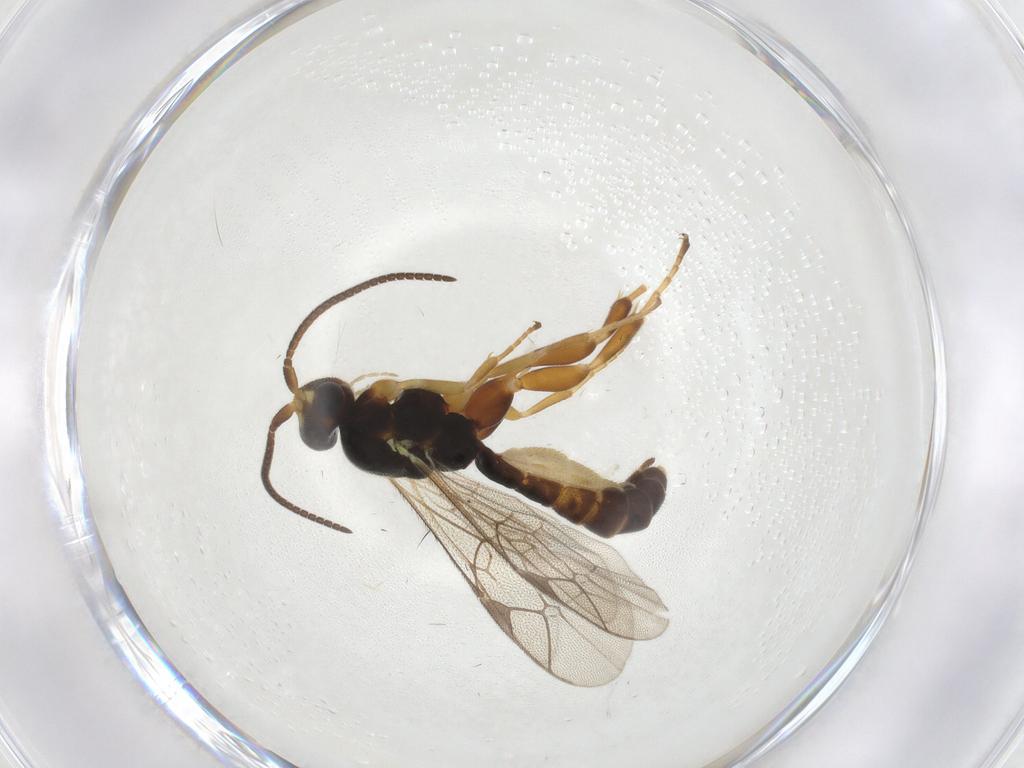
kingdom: Animalia
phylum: Arthropoda
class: Insecta
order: Hymenoptera
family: Ichneumonidae
